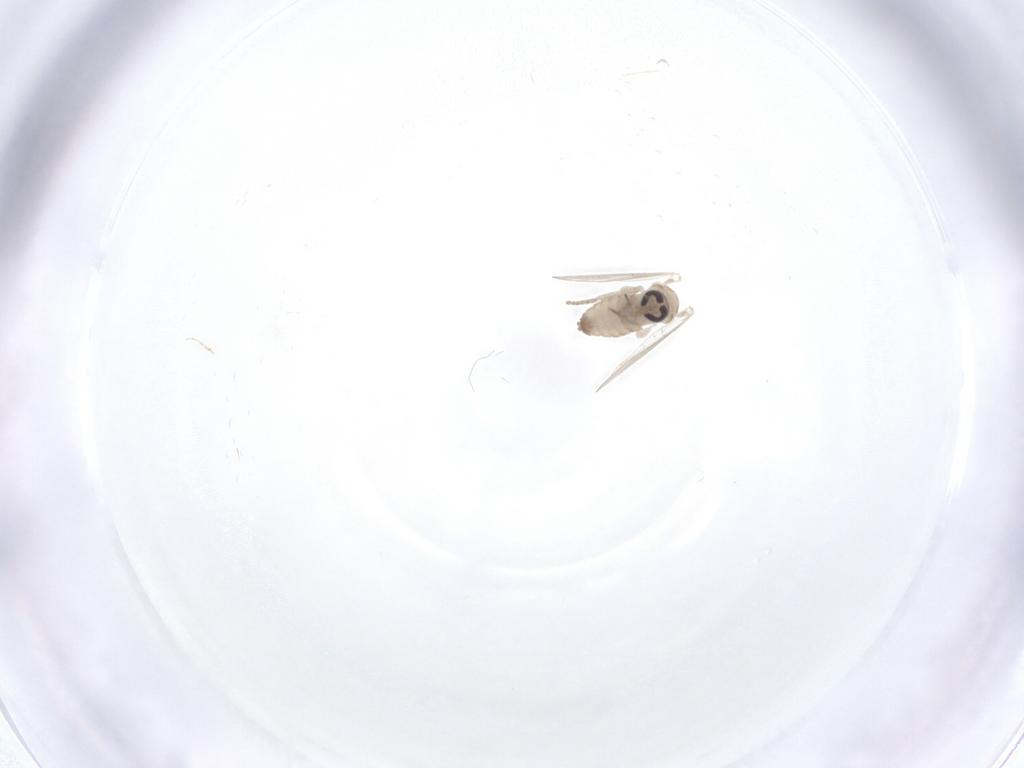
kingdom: Animalia
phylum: Arthropoda
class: Insecta
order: Diptera
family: Psychodidae
